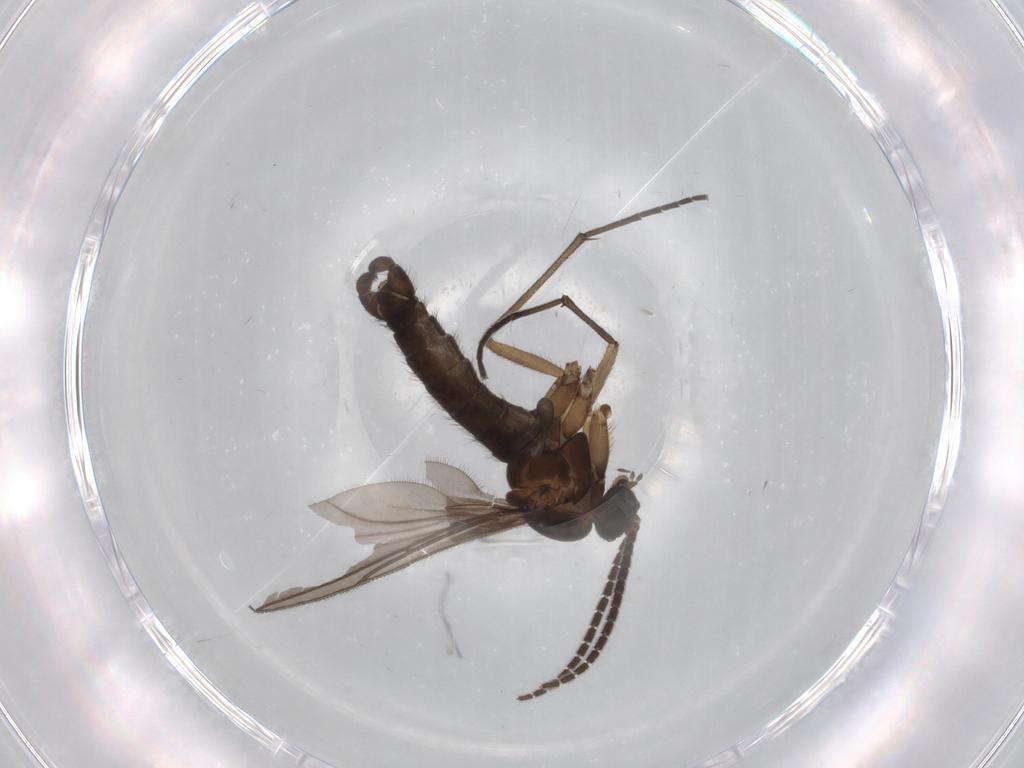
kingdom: Animalia
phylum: Arthropoda
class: Insecta
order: Diptera
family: Sciaridae
